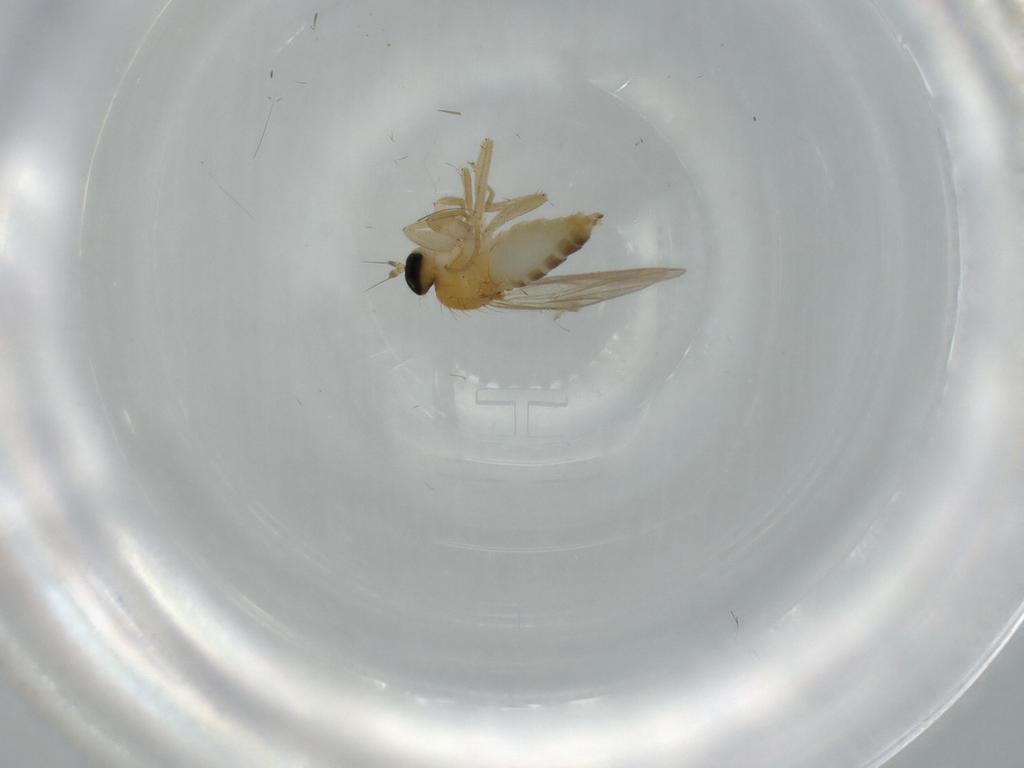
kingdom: Animalia
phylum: Arthropoda
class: Insecta
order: Diptera
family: Hybotidae
